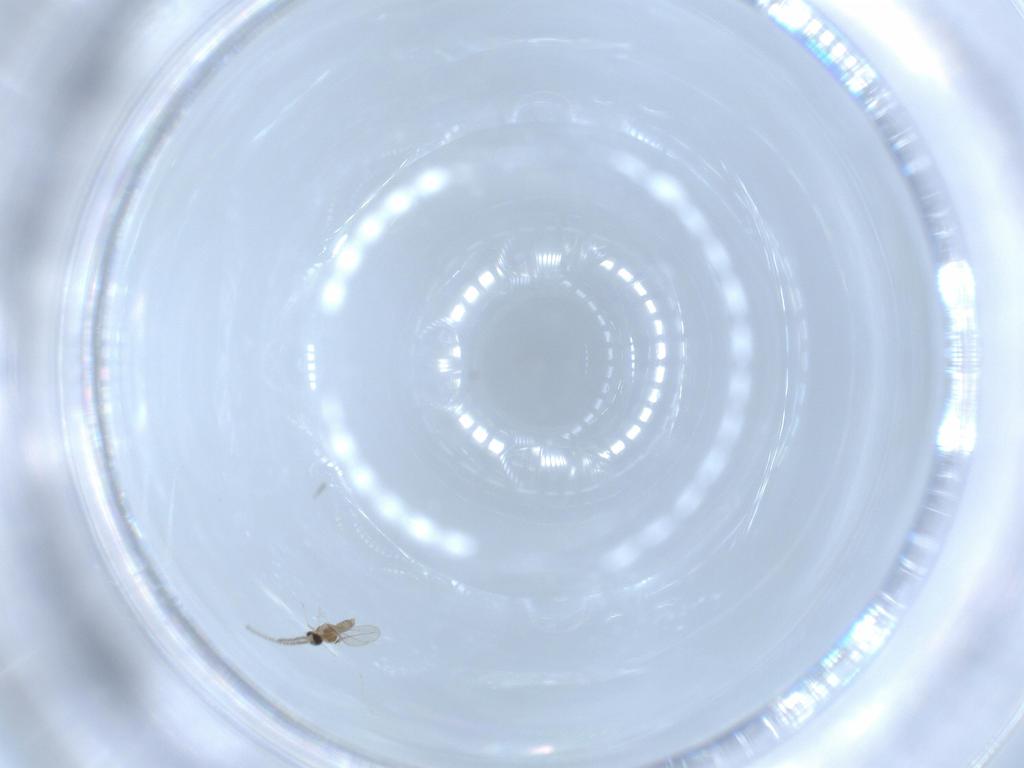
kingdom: Animalia
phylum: Arthropoda
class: Insecta
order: Diptera
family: Cecidomyiidae
